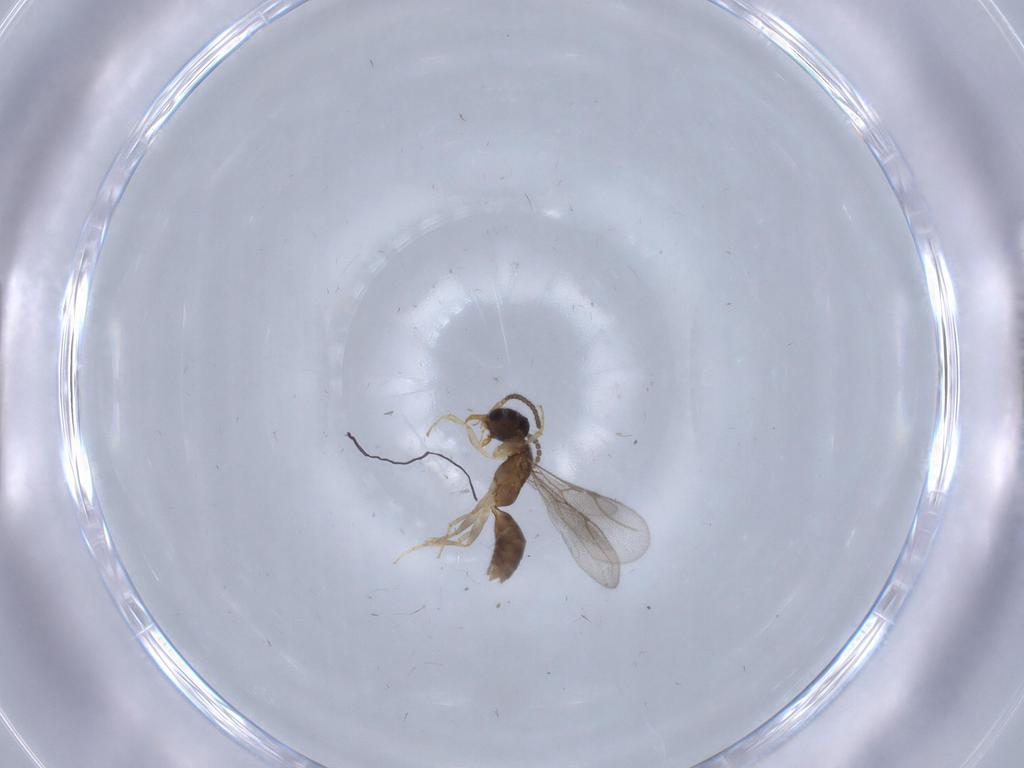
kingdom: Animalia
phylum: Arthropoda
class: Insecta
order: Hymenoptera
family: Bethylidae
